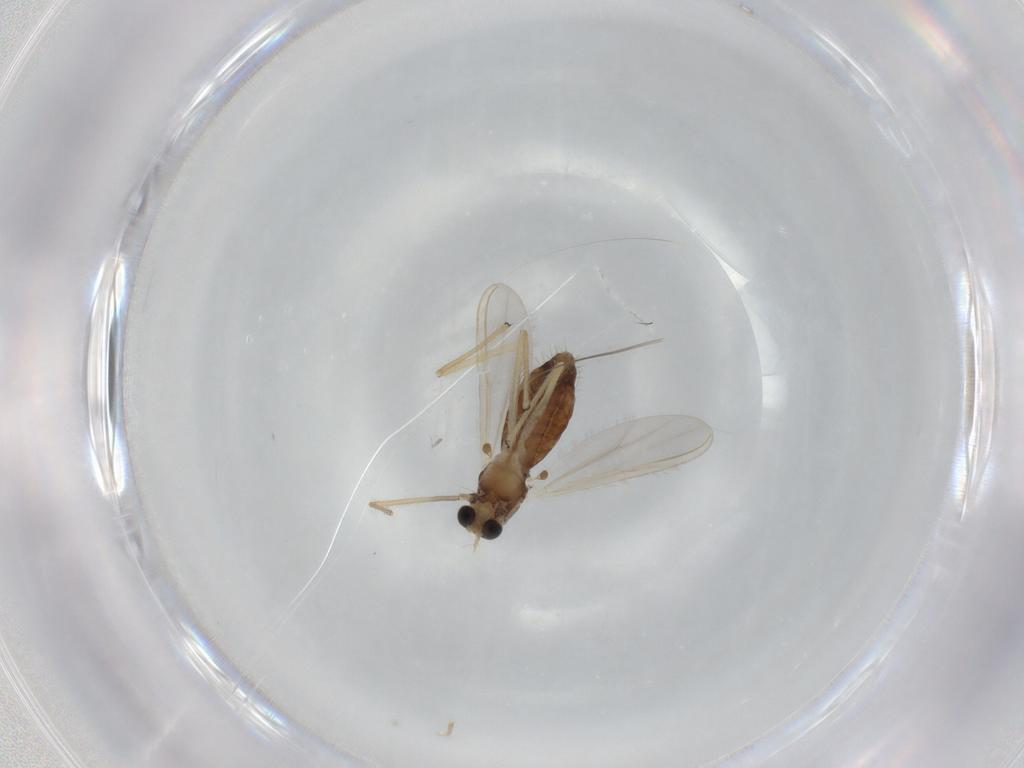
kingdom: Animalia
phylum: Arthropoda
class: Insecta
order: Diptera
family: Chironomidae
